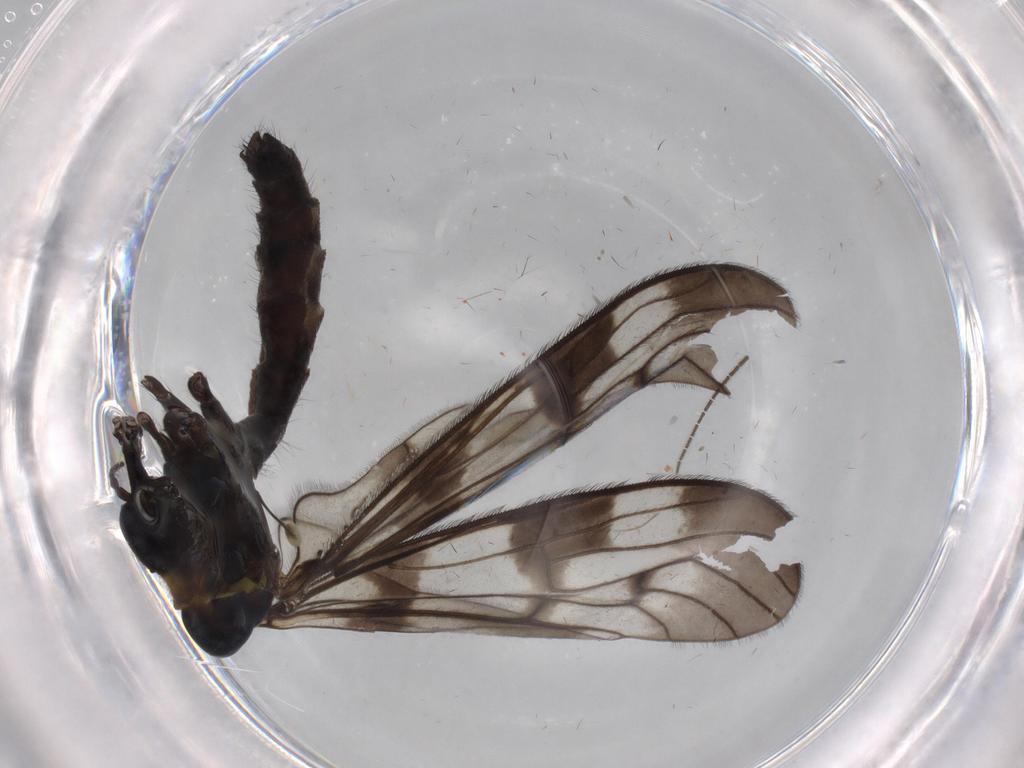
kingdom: Animalia
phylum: Arthropoda
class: Insecta
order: Diptera
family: Limoniidae
